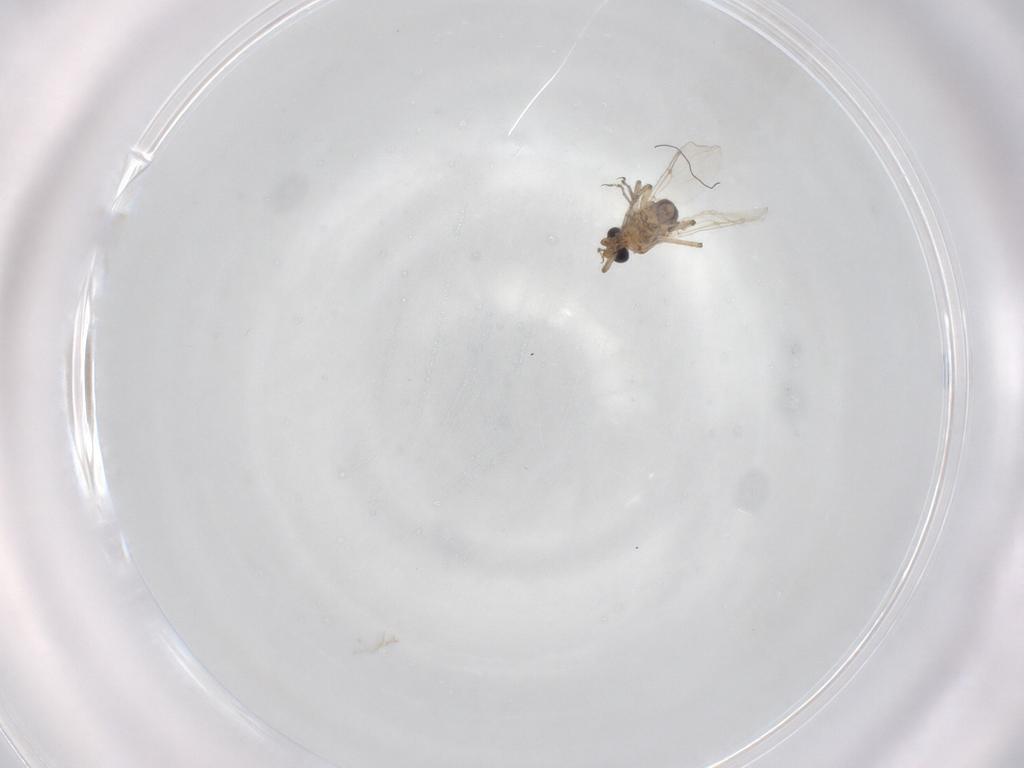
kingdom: Animalia
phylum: Arthropoda
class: Insecta
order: Diptera
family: Ceratopogonidae
